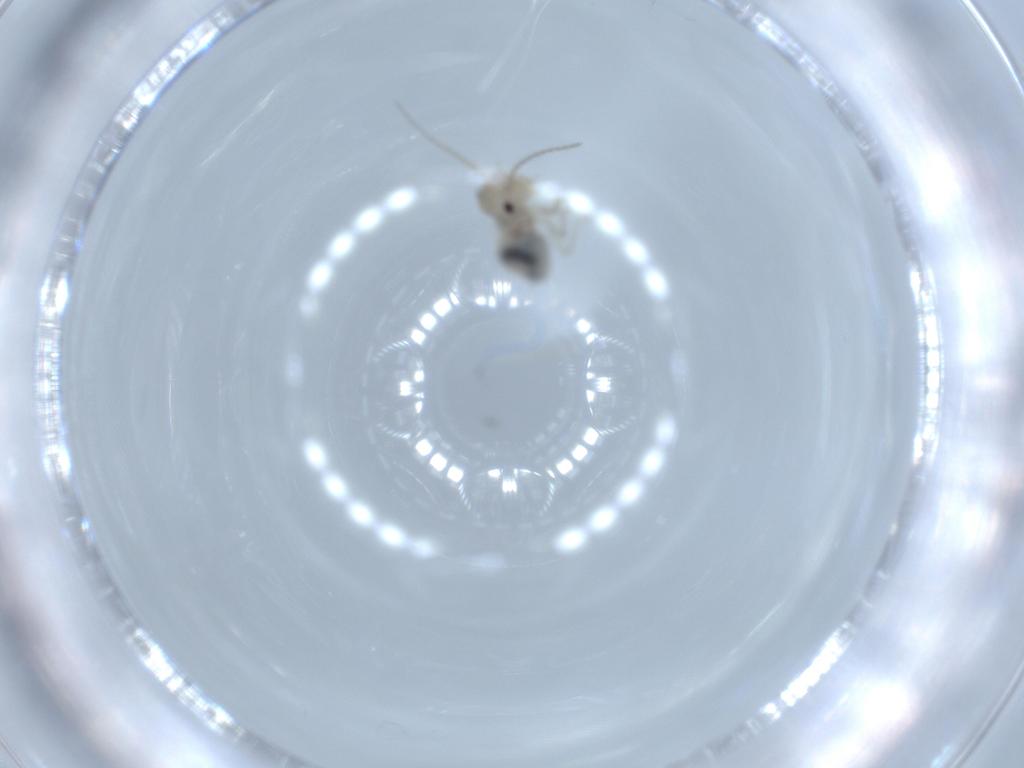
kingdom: Animalia
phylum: Arthropoda
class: Insecta
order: Psocodea
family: Amphipsocidae
